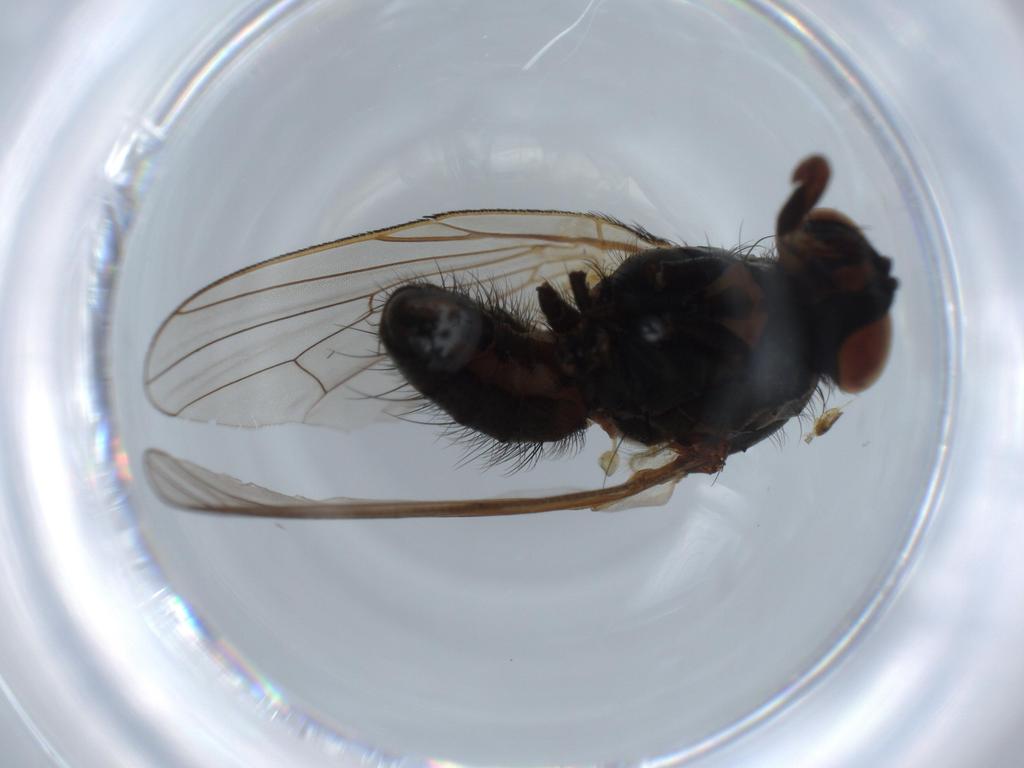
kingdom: Animalia
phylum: Arthropoda
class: Insecta
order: Diptera
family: Anthomyiidae
